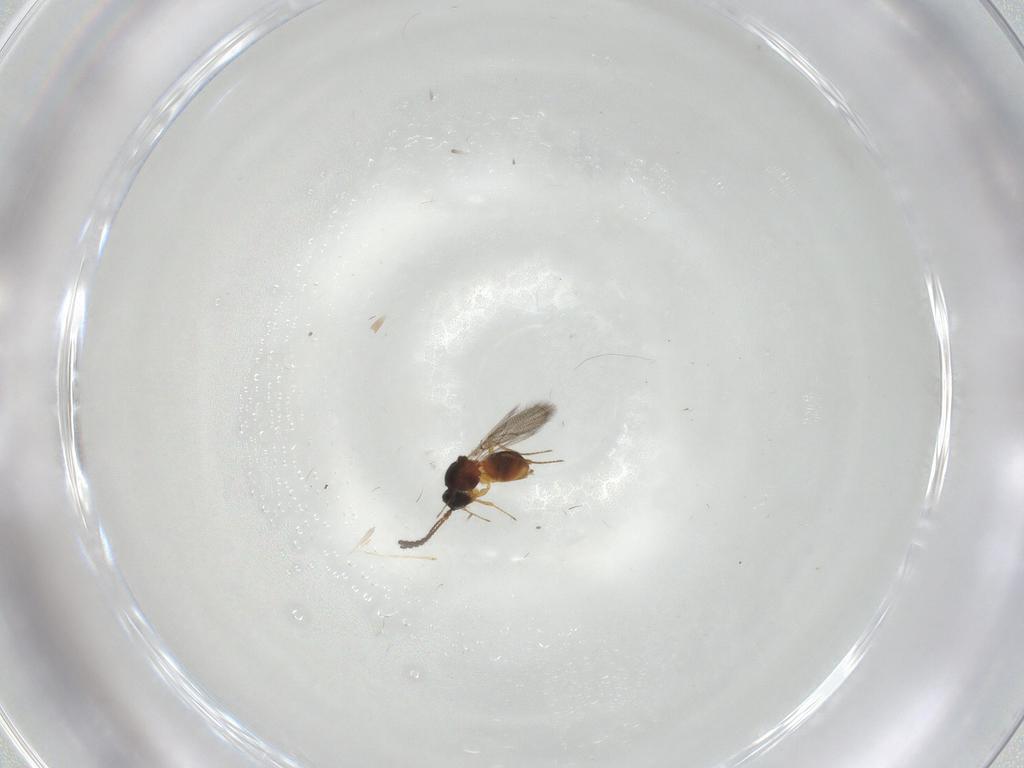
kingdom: Animalia
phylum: Arthropoda
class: Insecta
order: Hymenoptera
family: Figitidae
